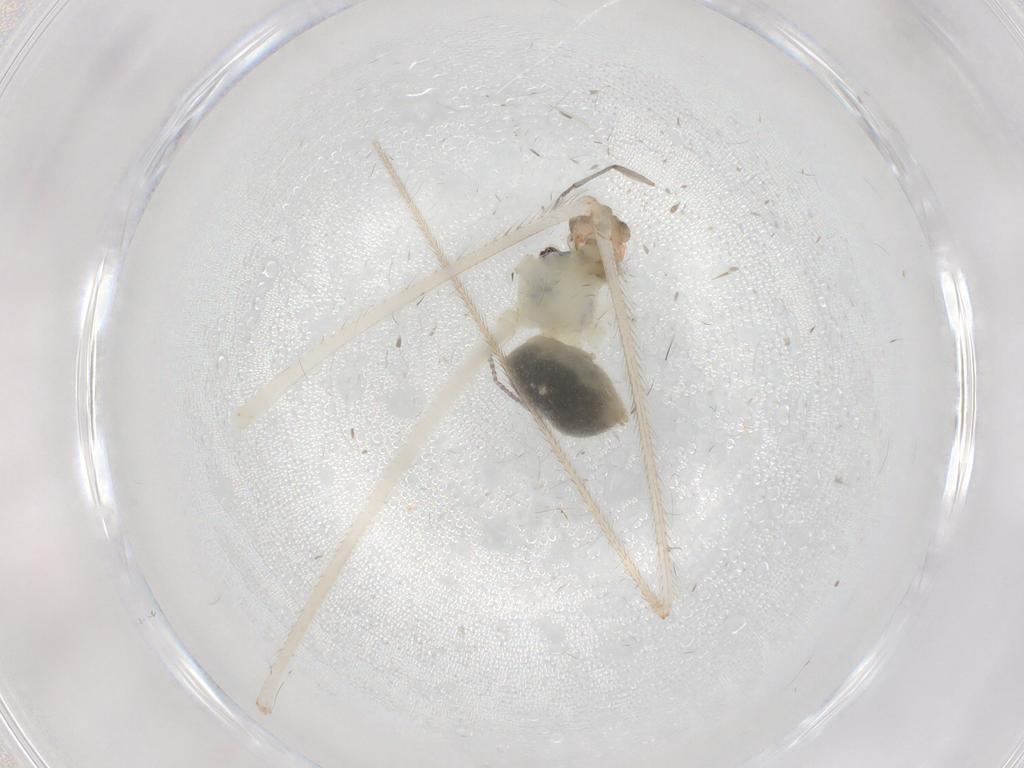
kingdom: Animalia
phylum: Arthropoda
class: Arachnida
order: Araneae
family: Pholcidae
